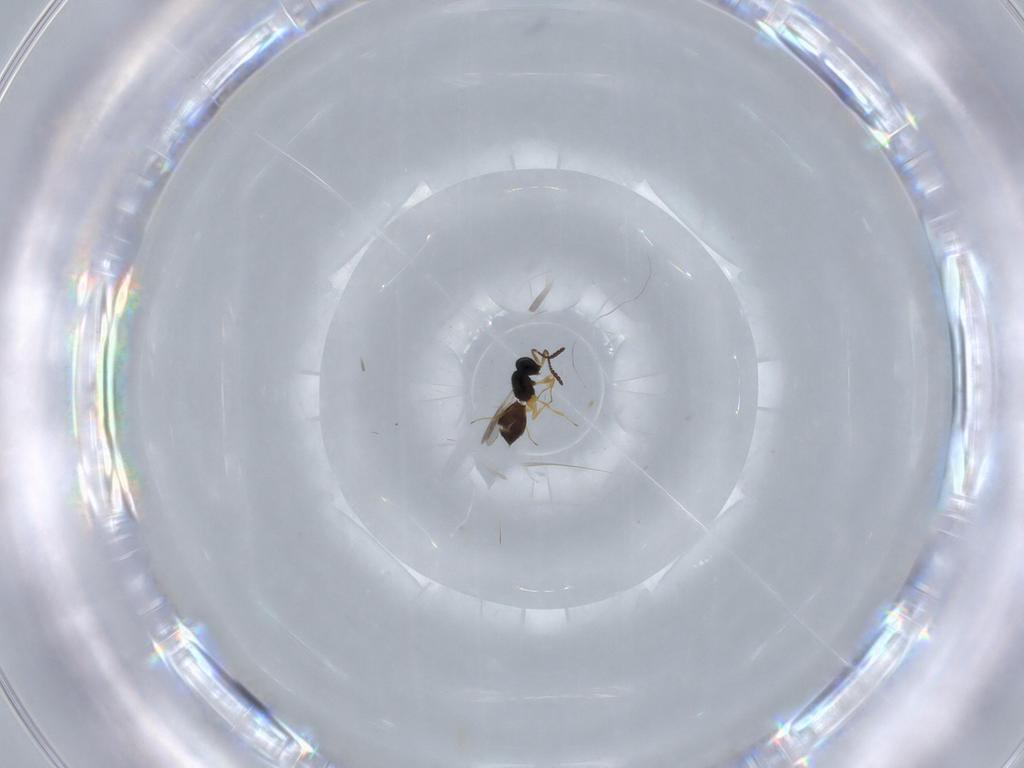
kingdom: Animalia
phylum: Arthropoda
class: Insecta
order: Hymenoptera
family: Scelionidae
